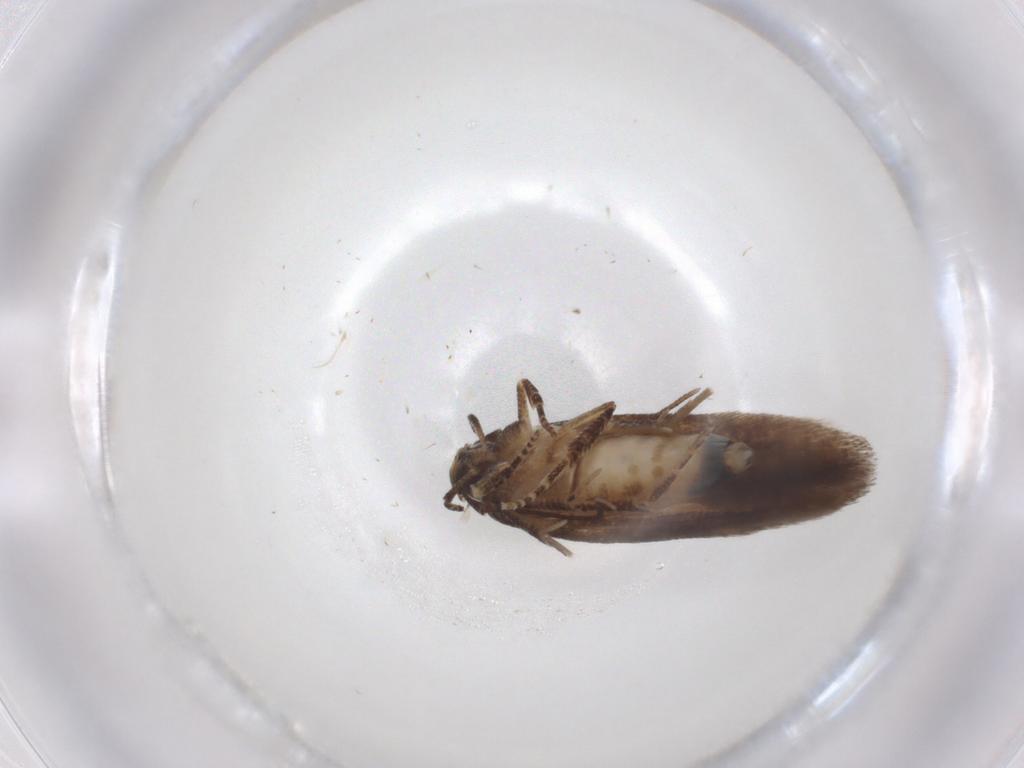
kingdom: Animalia
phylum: Arthropoda
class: Insecta
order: Lepidoptera
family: Cosmopterigidae
